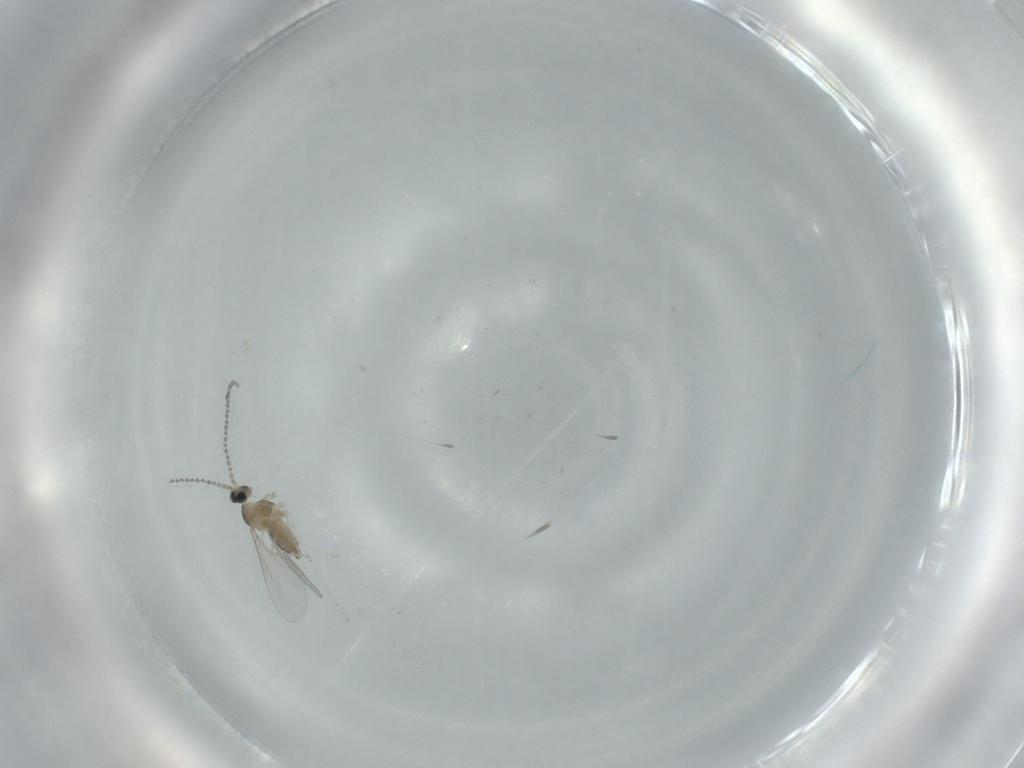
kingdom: Animalia
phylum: Arthropoda
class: Insecta
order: Diptera
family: Cecidomyiidae
